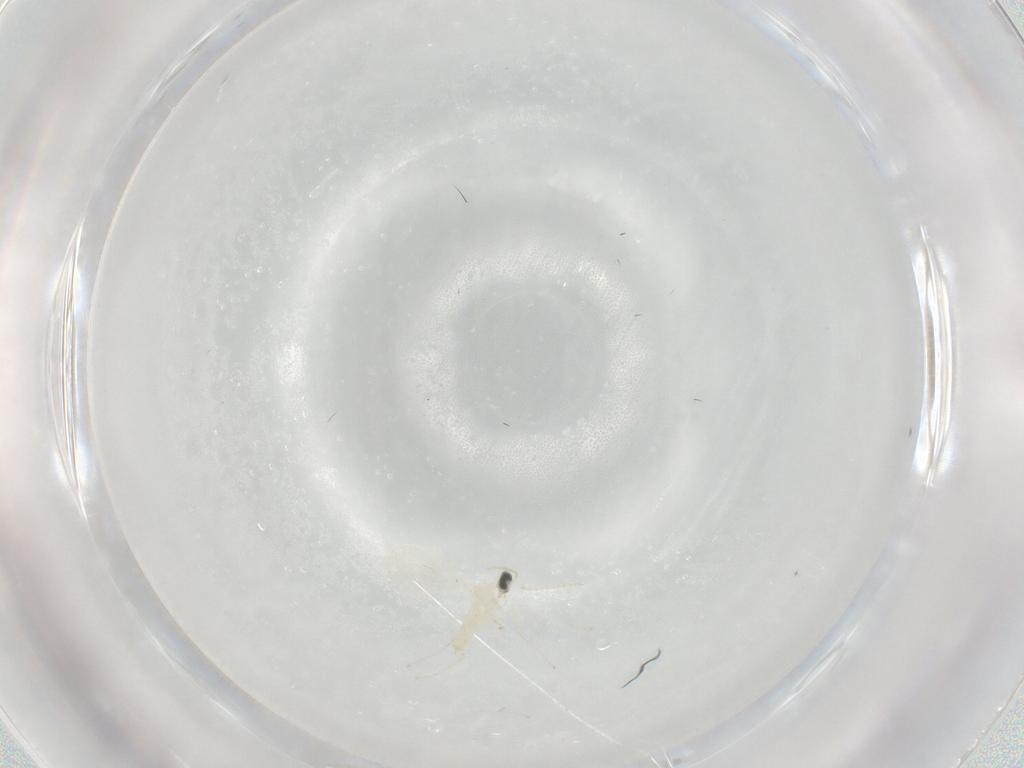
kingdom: Animalia
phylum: Arthropoda
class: Insecta
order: Diptera
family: Cecidomyiidae
